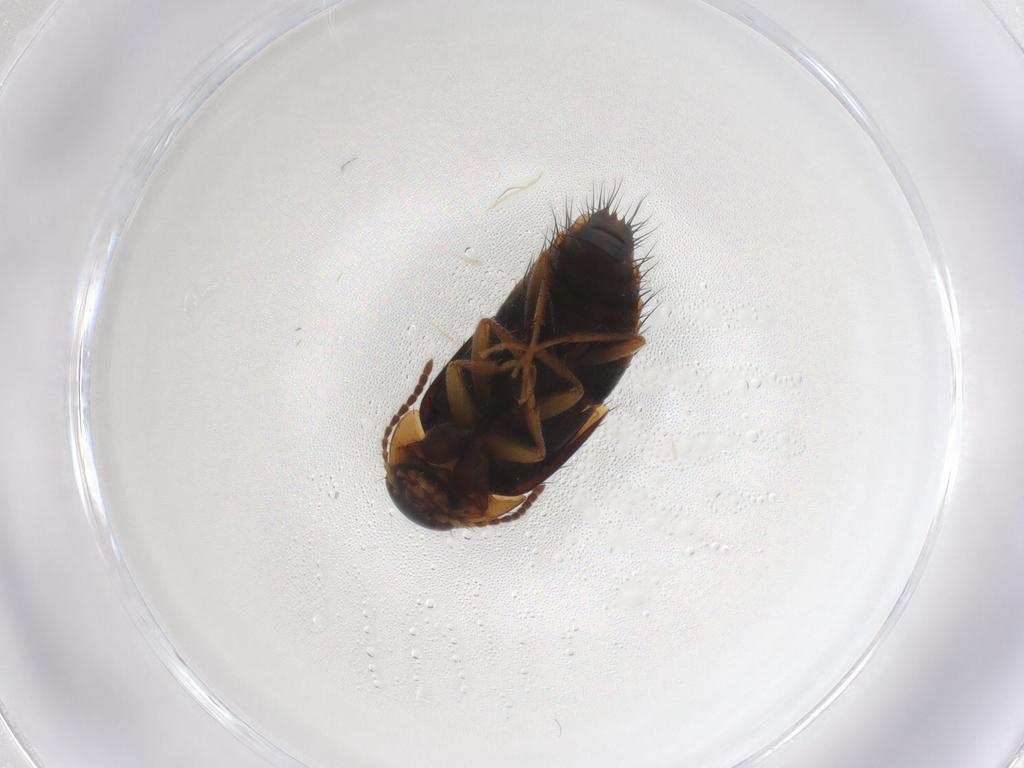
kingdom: Animalia
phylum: Arthropoda
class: Insecta
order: Coleoptera
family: Staphylinidae
